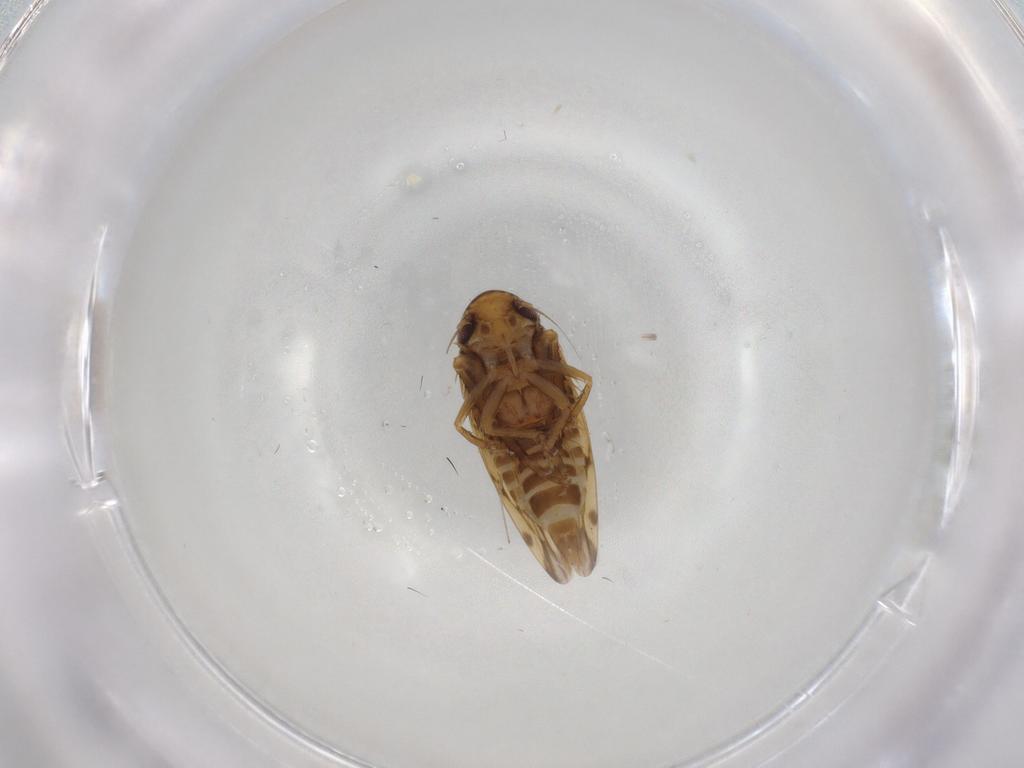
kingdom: Animalia
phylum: Arthropoda
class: Insecta
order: Hemiptera
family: Cicadellidae
